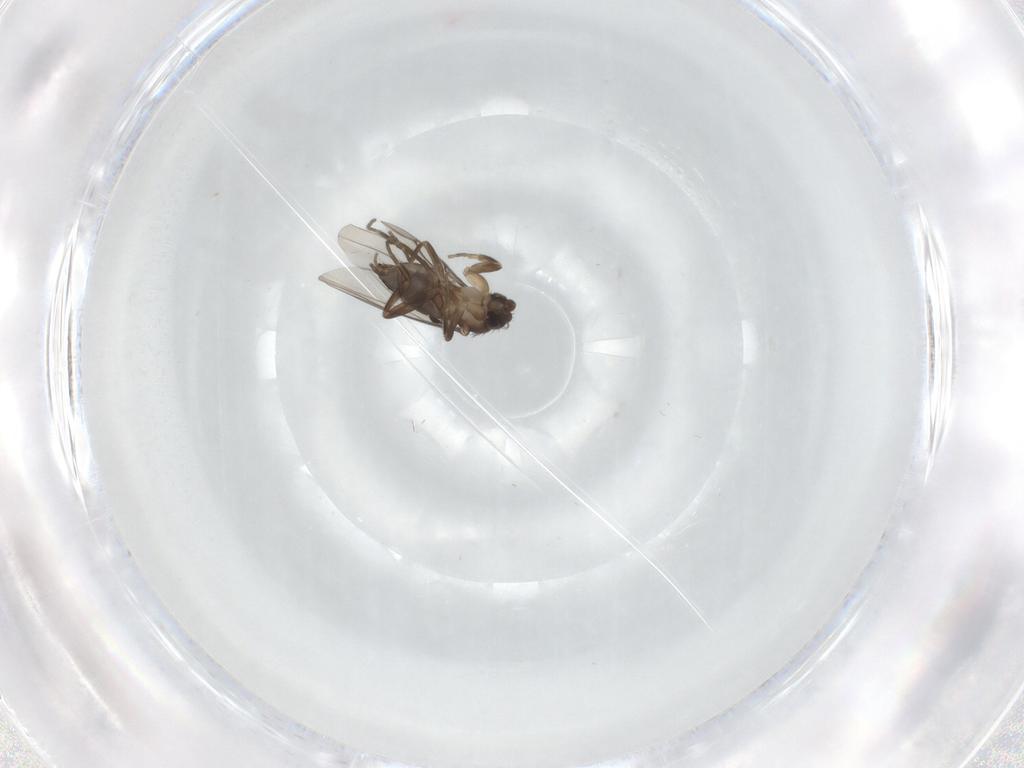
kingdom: Animalia
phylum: Arthropoda
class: Insecta
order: Diptera
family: Phoridae
